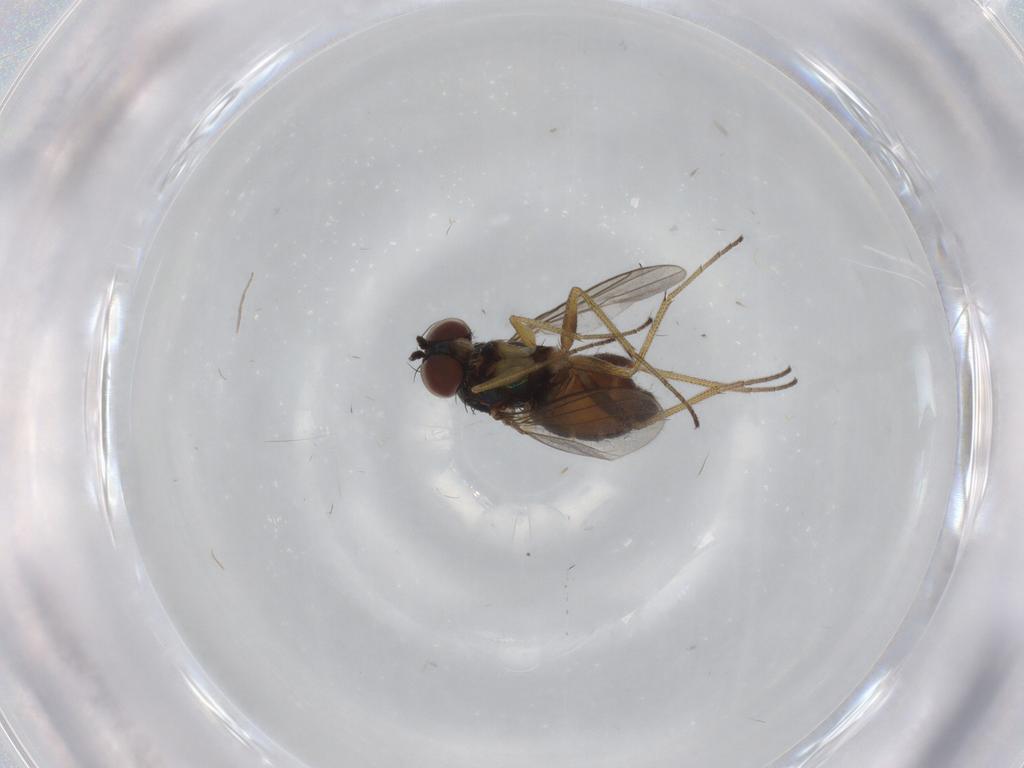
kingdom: Animalia
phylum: Arthropoda
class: Insecta
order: Diptera
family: Dolichopodidae
